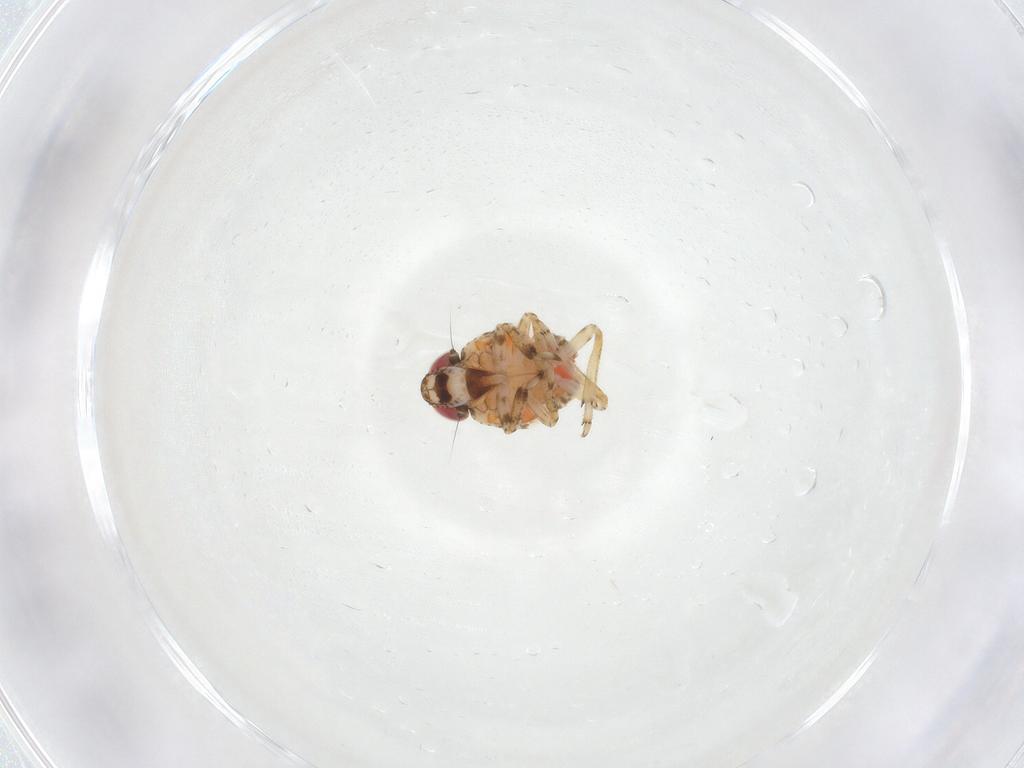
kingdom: Animalia
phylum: Arthropoda
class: Insecta
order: Hemiptera
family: Issidae
